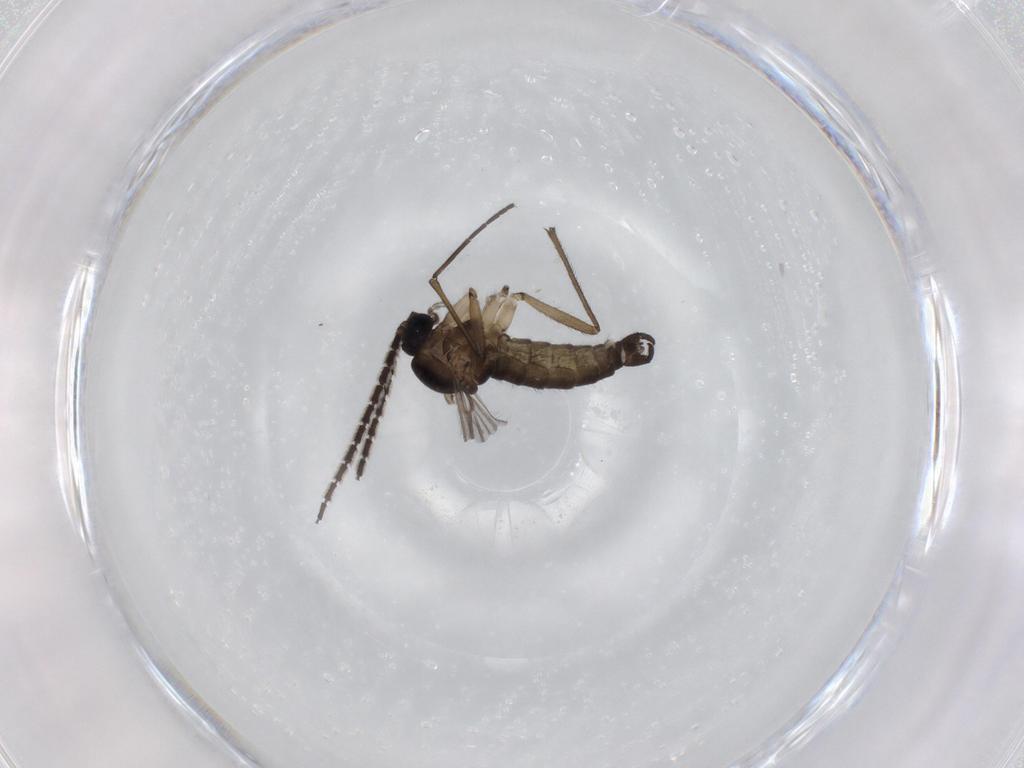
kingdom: Animalia
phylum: Arthropoda
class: Insecta
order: Diptera
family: Sciaridae
